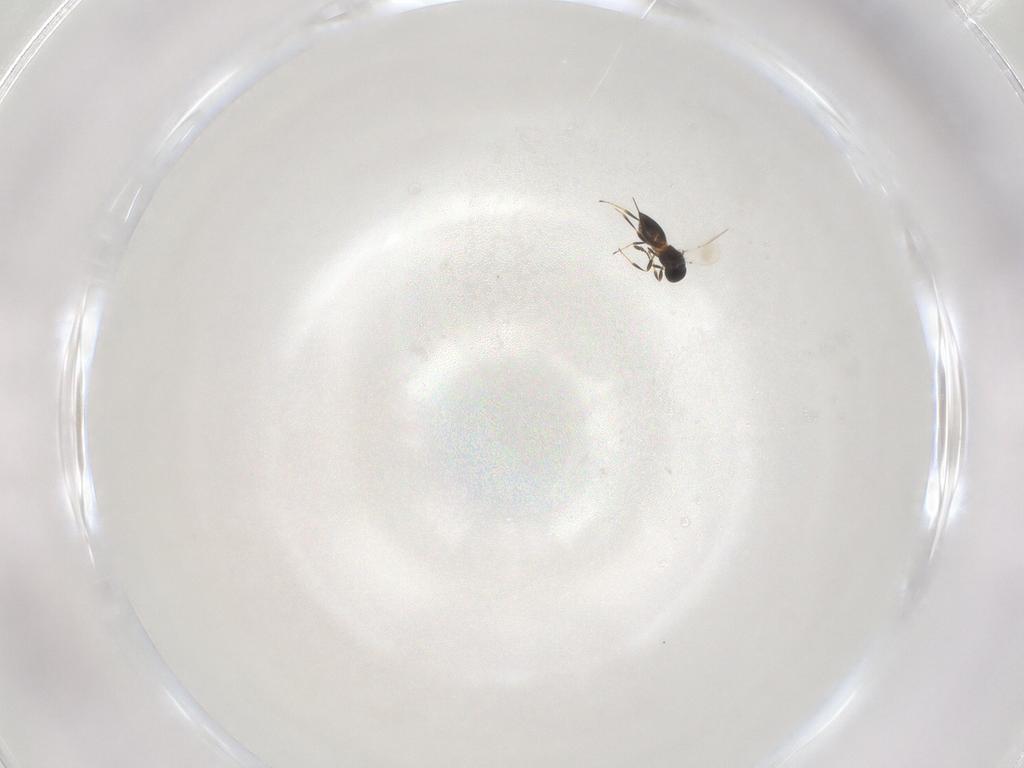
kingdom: Animalia
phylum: Arthropoda
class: Insecta
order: Hymenoptera
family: Platygastridae
